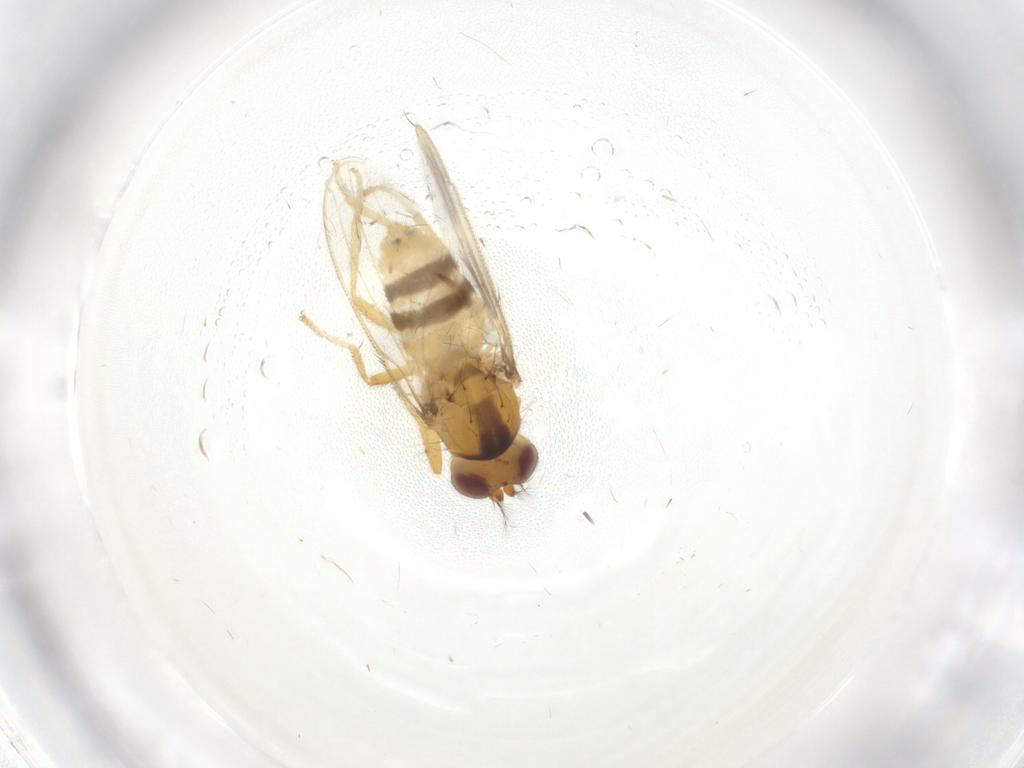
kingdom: Animalia
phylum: Arthropoda
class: Insecta
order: Diptera
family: Periscelididae
